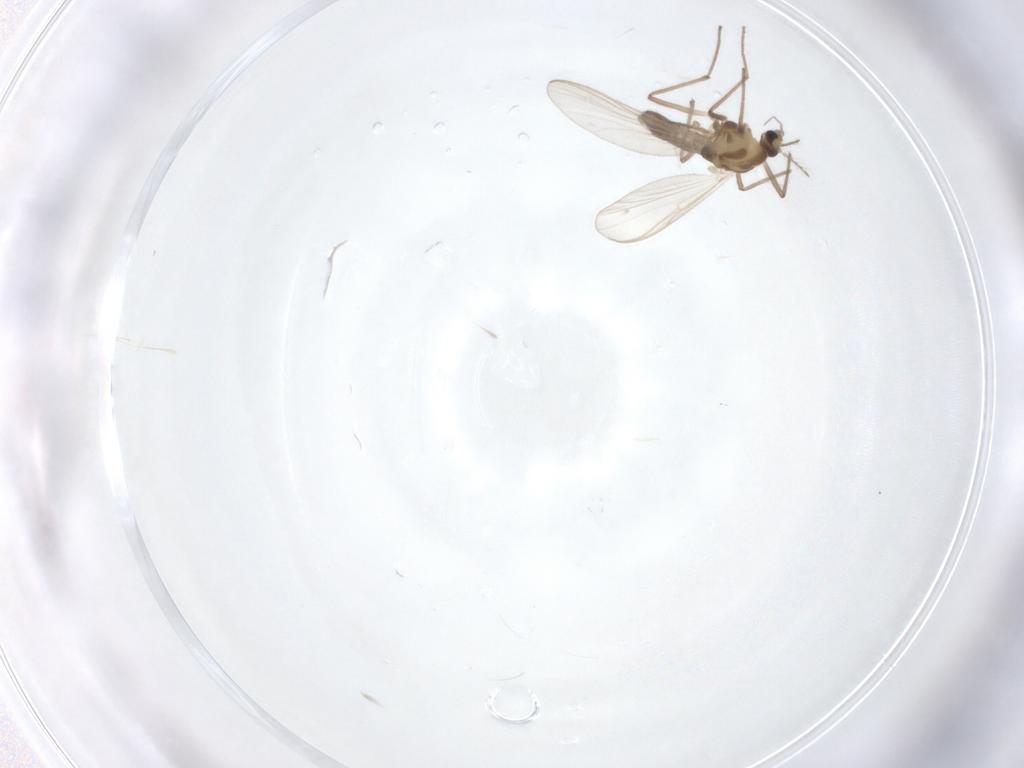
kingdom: Animalia
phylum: Arthropoda
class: Insecta
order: Diptera
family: Chironomidae
